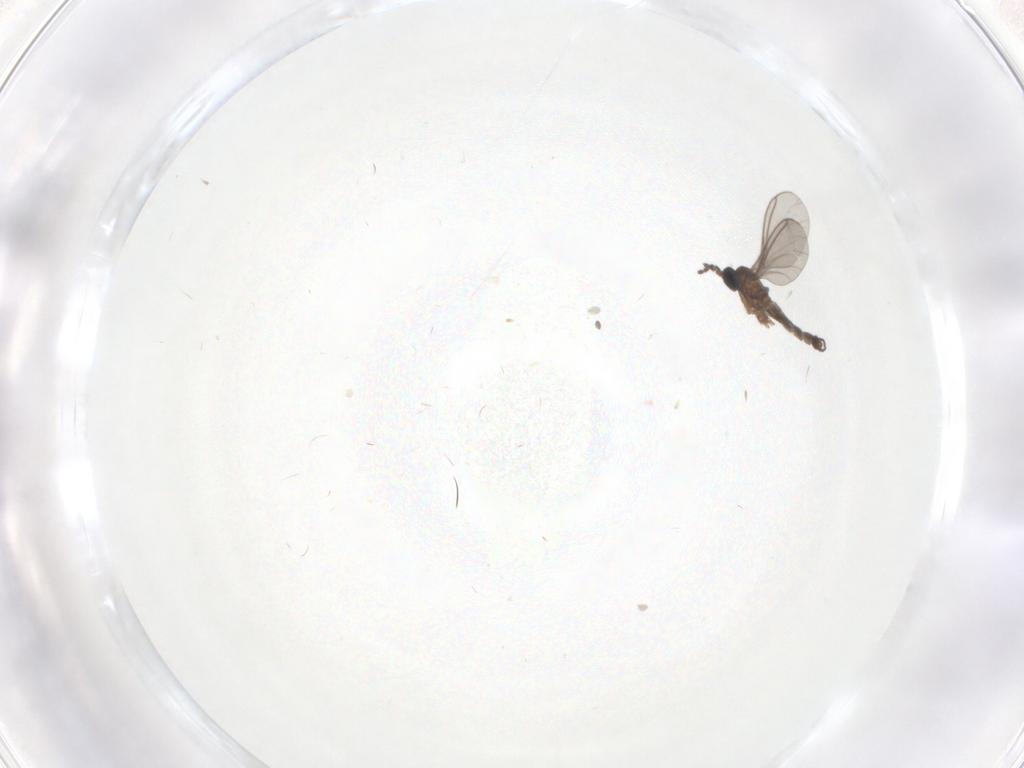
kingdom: Animalia
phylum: Arthropoda
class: Insecta
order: Diptera
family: Sciaridae
